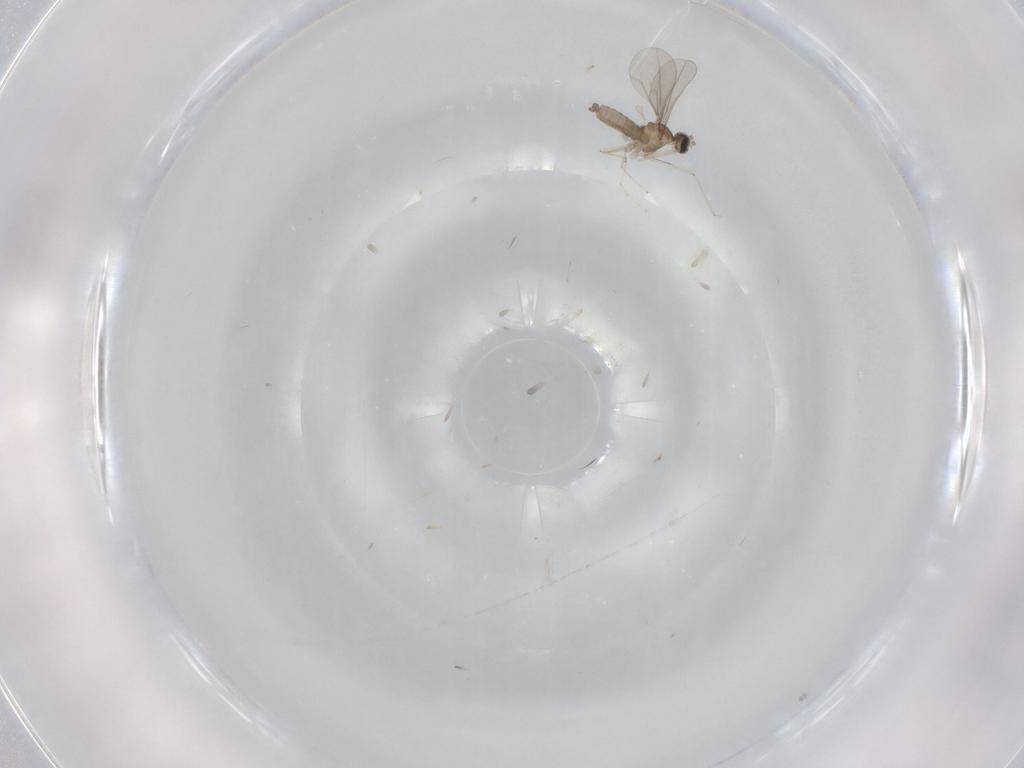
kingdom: Animalia
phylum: Arthropoda
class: Insecta
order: Diptera
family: Cecidomyiidae
